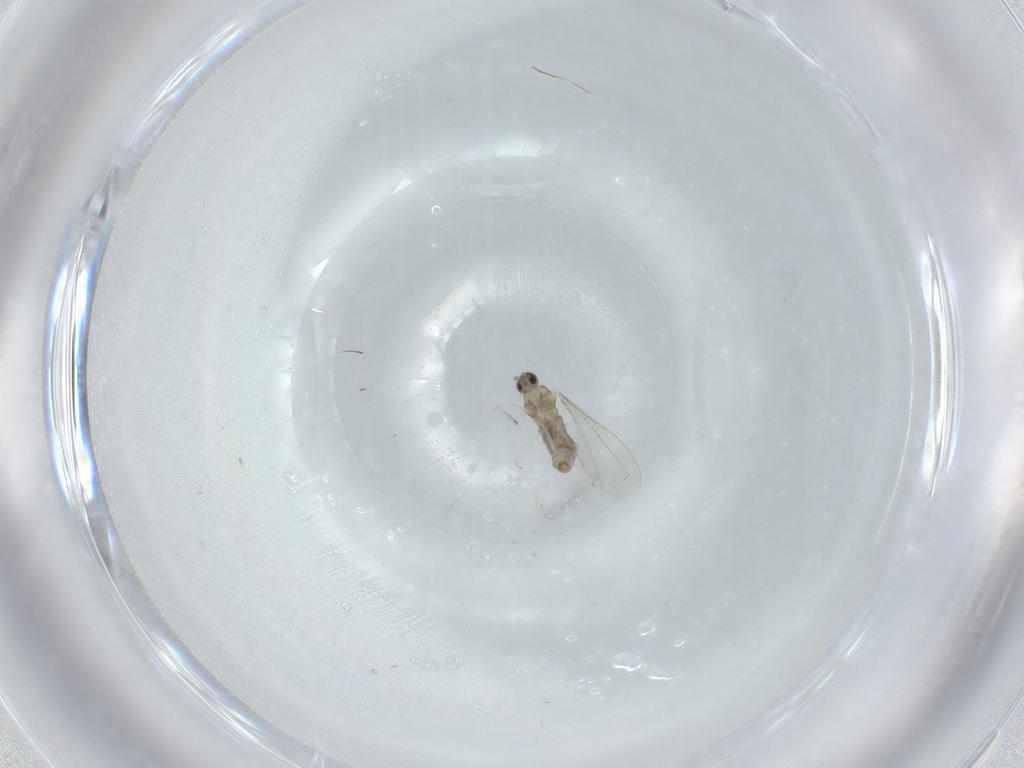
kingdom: Animalia
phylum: Arthropoda
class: Insecta
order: Diptera
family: Cecidomyiidae
